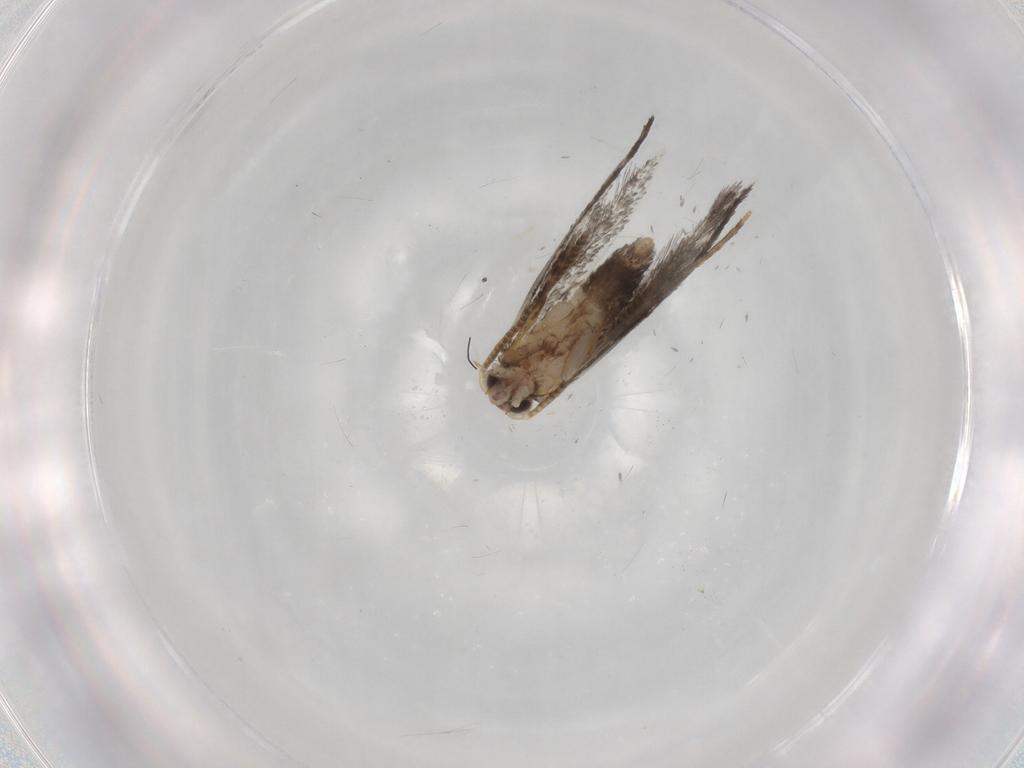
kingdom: Animalia
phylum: Arthropoda
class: Insecta
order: Lepidoptera
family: Tineidae
